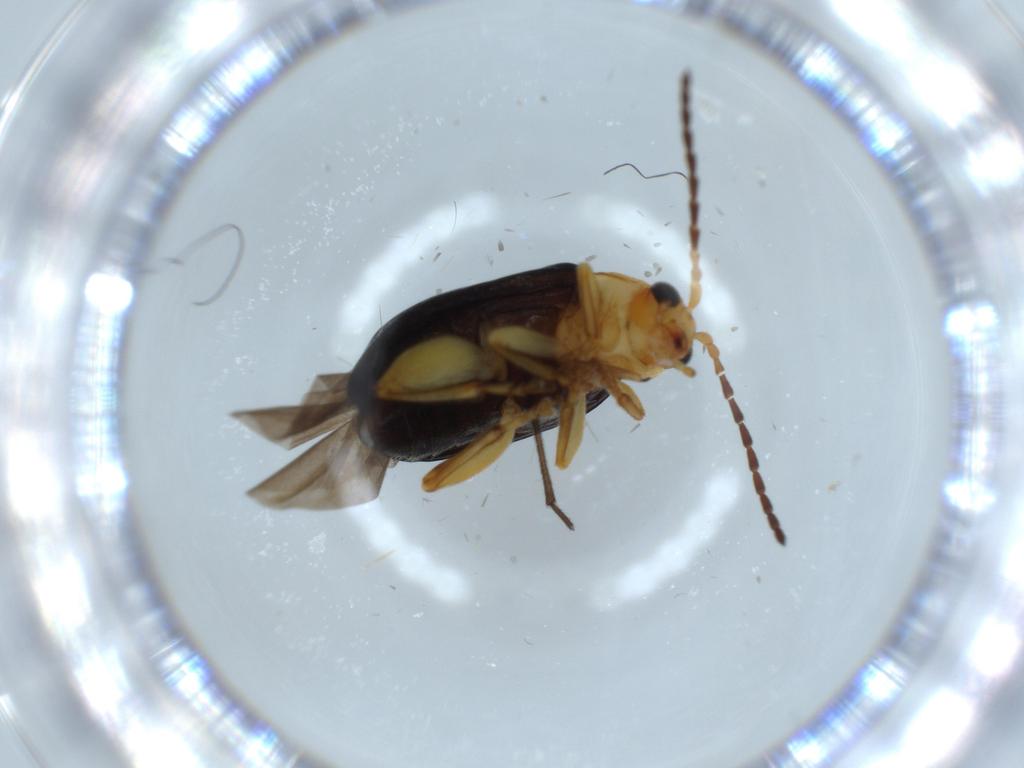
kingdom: Animalia
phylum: Arthropoda
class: Insecta
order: Coleoptera
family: Chrysomelidae
